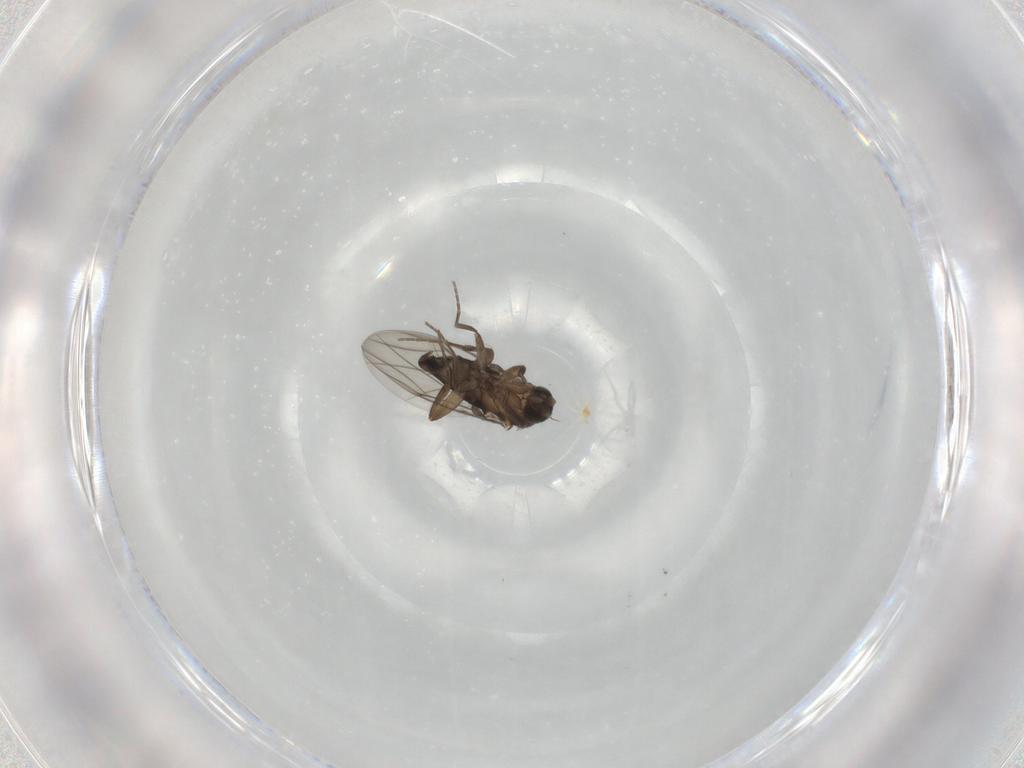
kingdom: Animalia
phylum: Arthropoda
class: Insecta
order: Diptera
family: Phoridae
